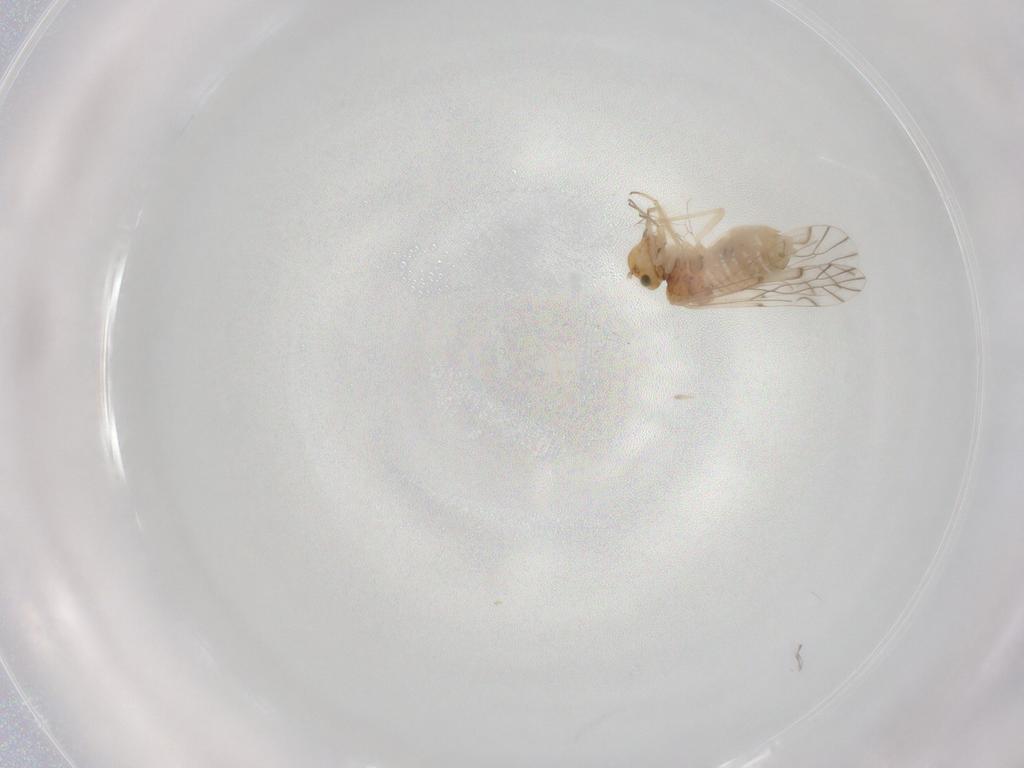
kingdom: Animalia
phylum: Arthropoda
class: Insecta
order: Psocodea
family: Lachesillidae
